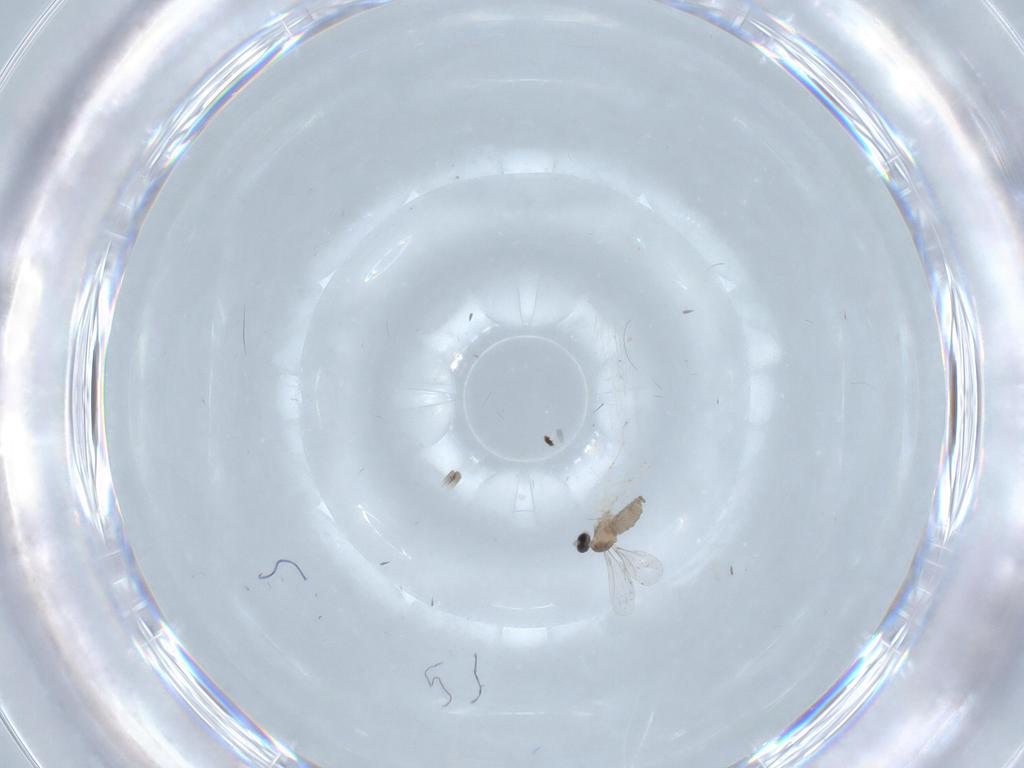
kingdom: Animalia
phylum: Arthropoda
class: Insecta
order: Diptera
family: Cecidomyiidae
